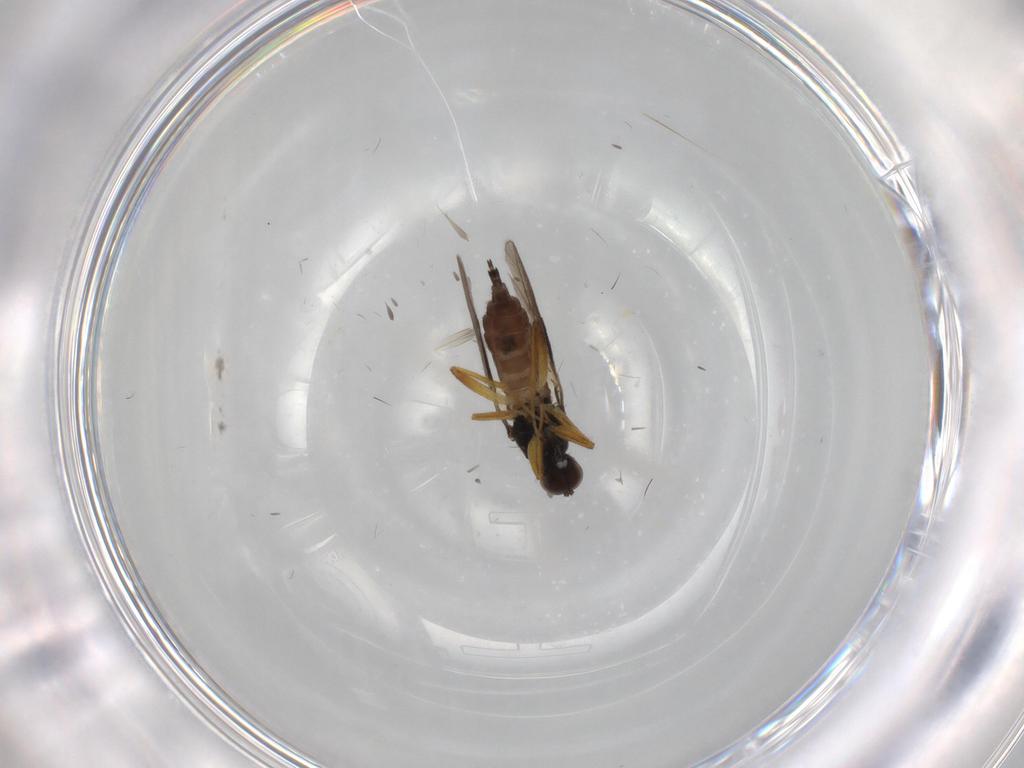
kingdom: Animalia
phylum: Arthropoda
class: Insecta
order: Diptera
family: Hybotidae
